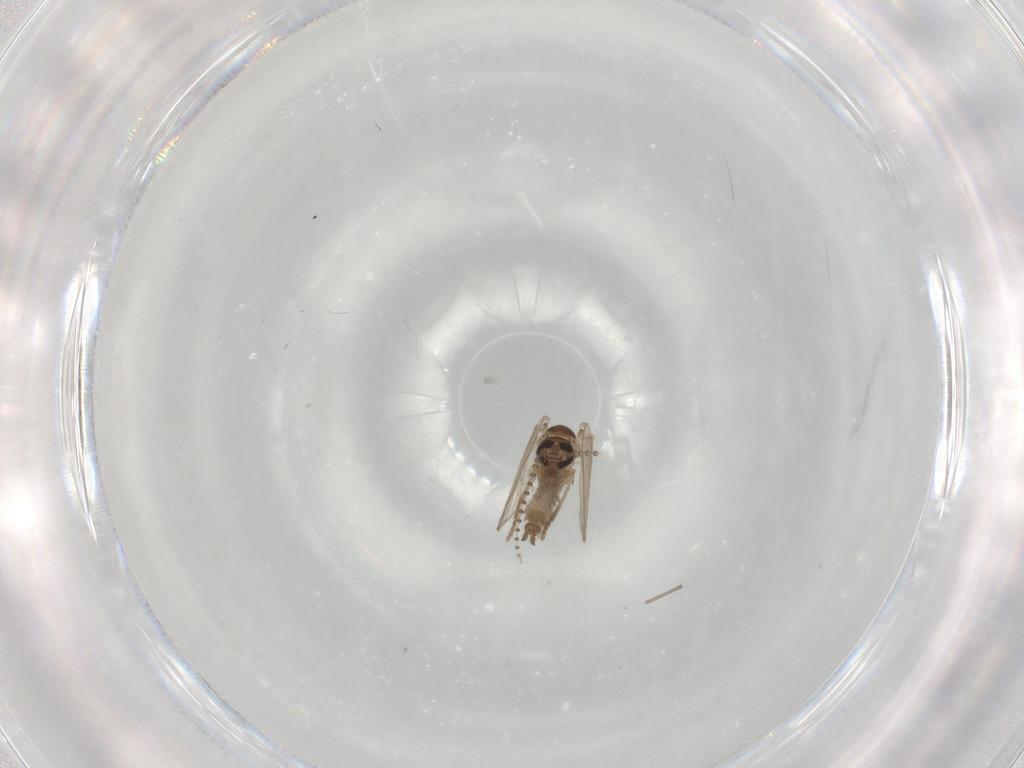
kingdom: Animalia
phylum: Arthropoda
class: Insecta
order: Diptera
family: Psychodidae
